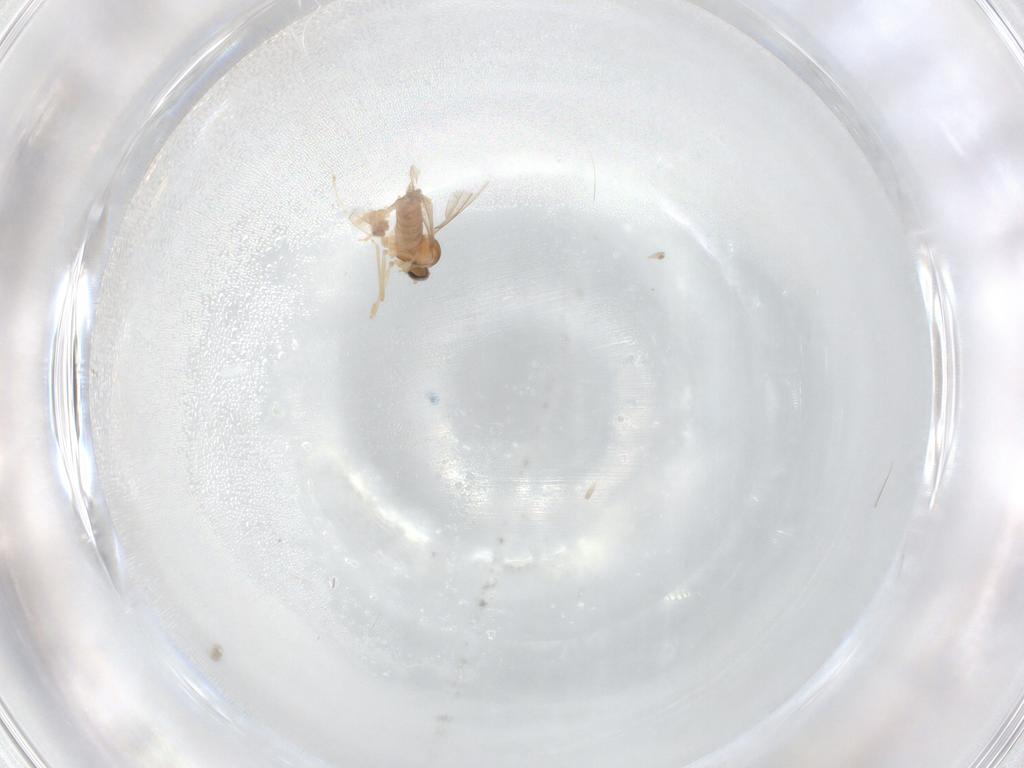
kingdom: Animalia
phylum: Arthropoda
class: Insecta
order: Diptera
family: Cecidomyiidae
